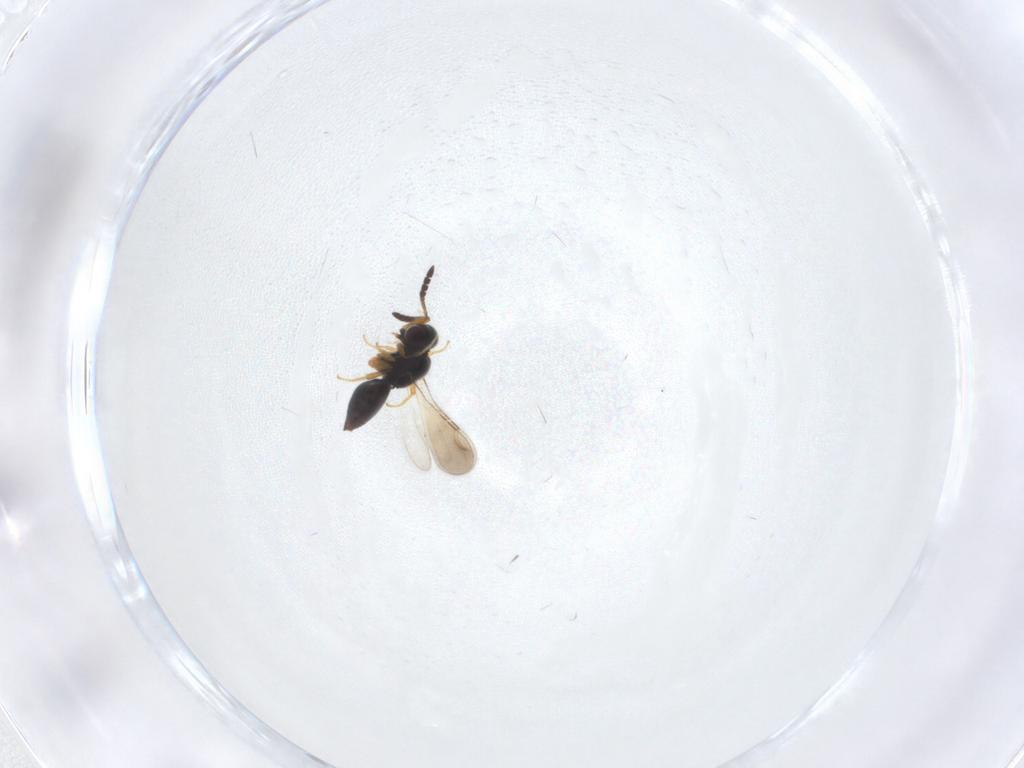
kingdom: Animalia
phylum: Arthropoda
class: Insecta
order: Hymenoptera
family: Ceraphronidae
